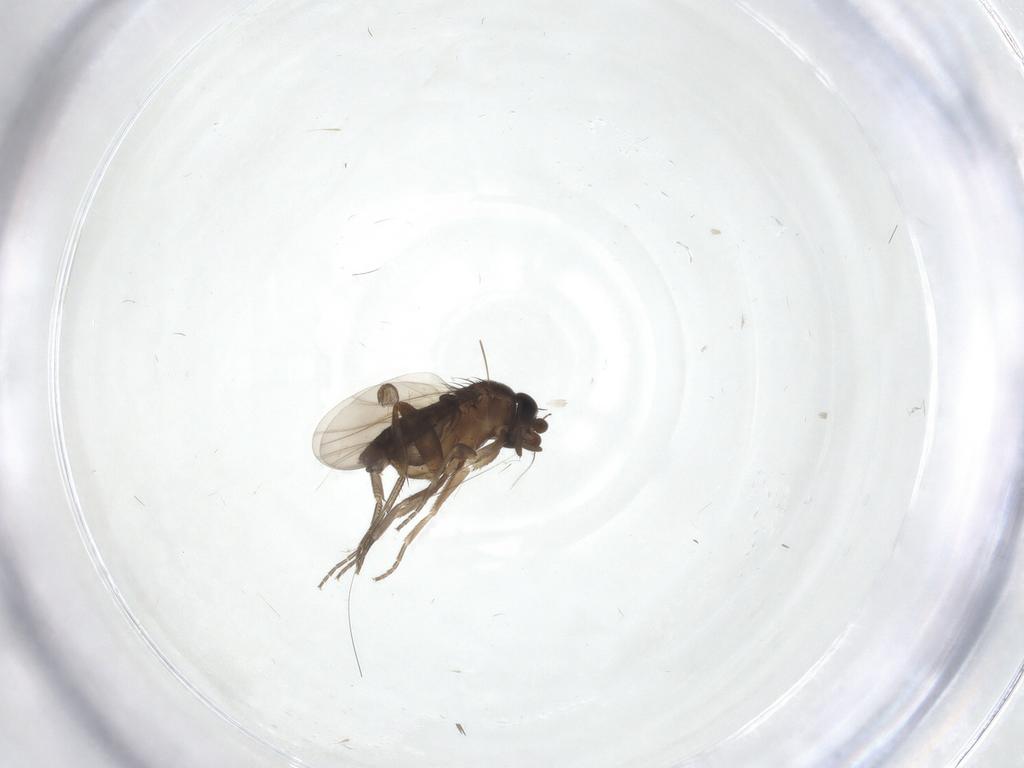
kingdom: Animalia
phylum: Arthropoda
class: Insecta
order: Diptera
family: Phoridae
